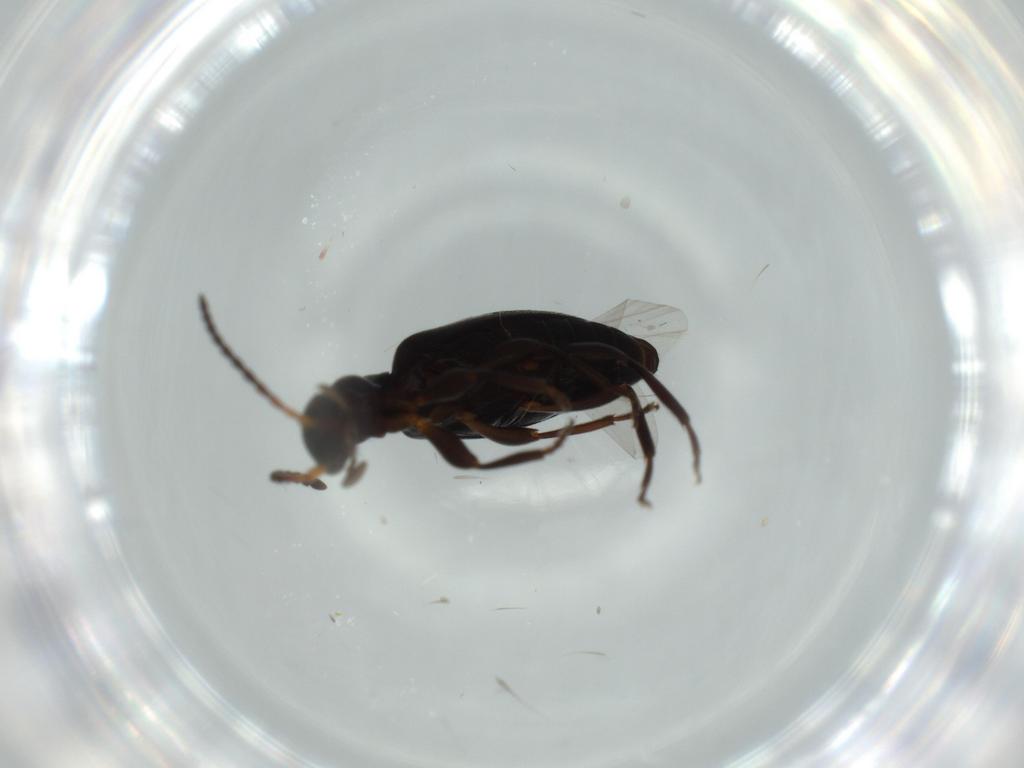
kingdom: Animalia
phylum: Arthropoda
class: Insecta
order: Coleoptera
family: Anthicidae
